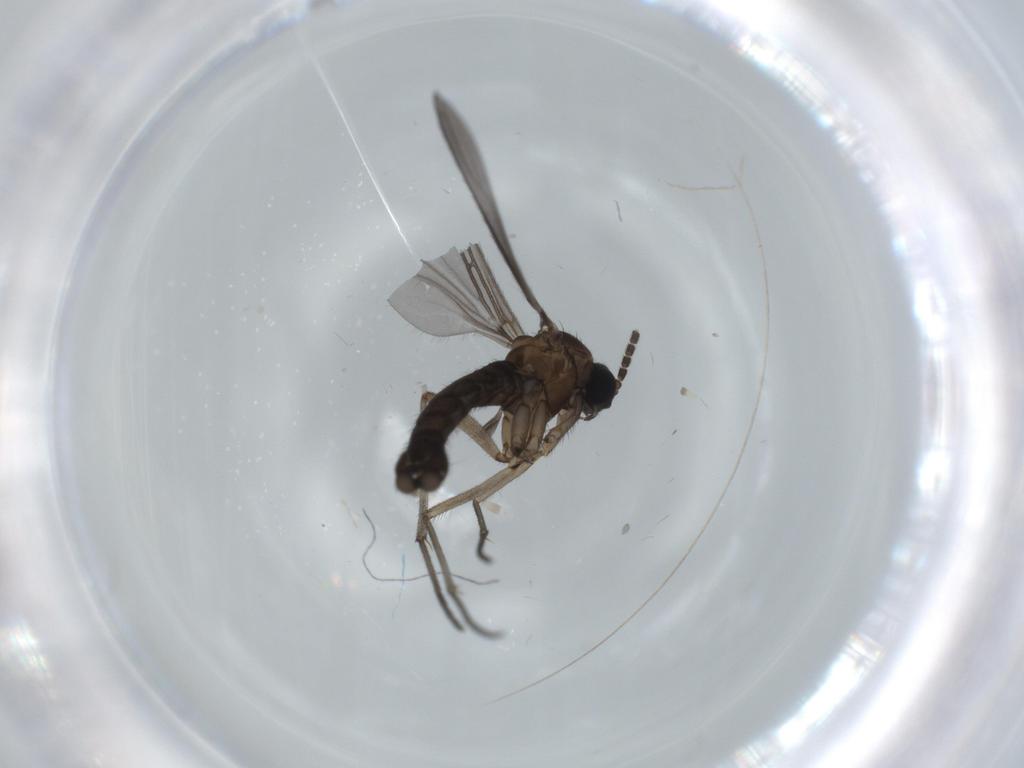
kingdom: Animalia
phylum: Arthropoda
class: Insecta
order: Diptera
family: Sciaridae
